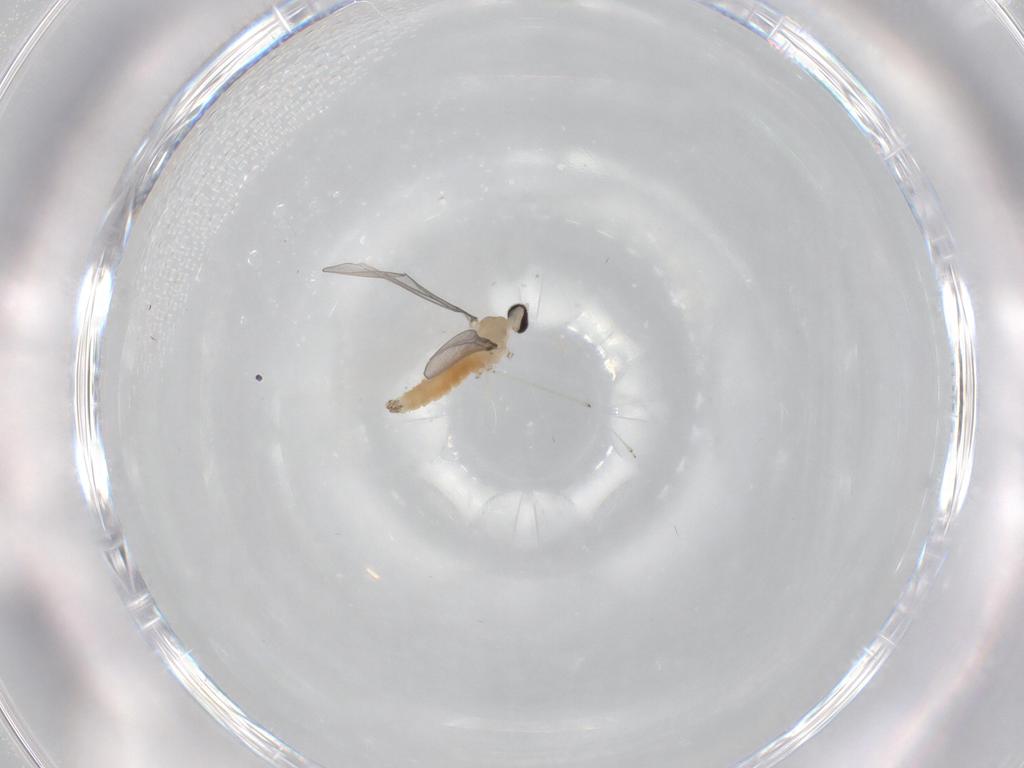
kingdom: Animalia
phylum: Arthropoda
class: Insecta
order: Diptera
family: Cecidomyiidae
